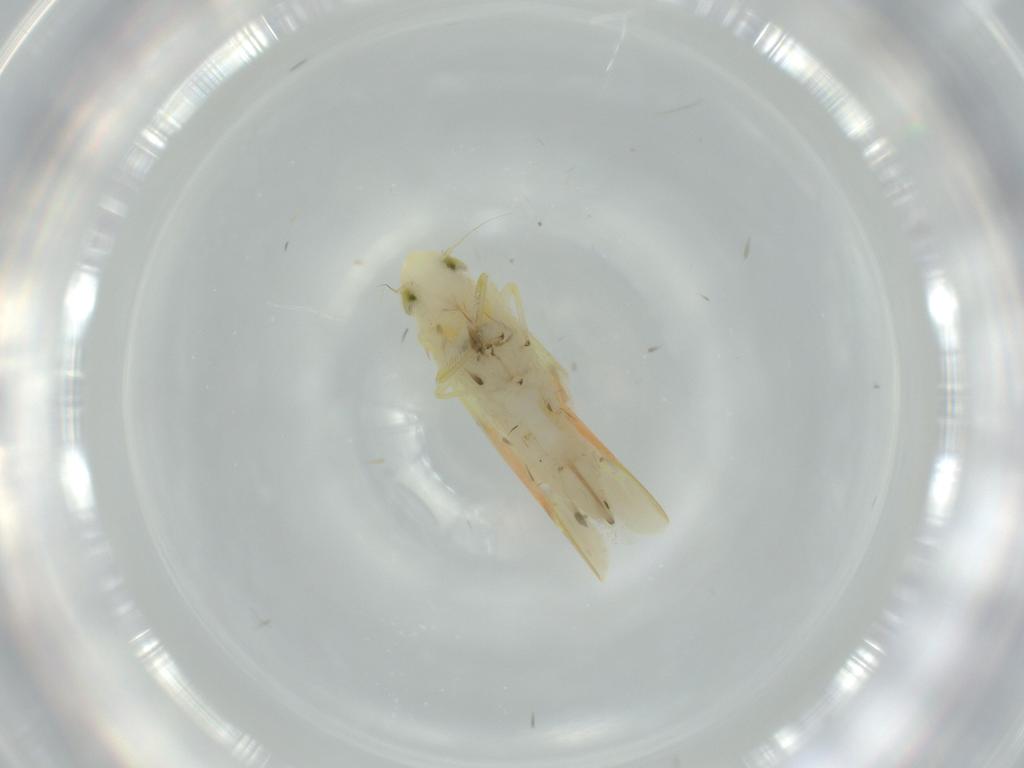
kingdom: Animalia
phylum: Arthropoda
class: Insecta
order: Hemiptera
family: Cicadellidae
